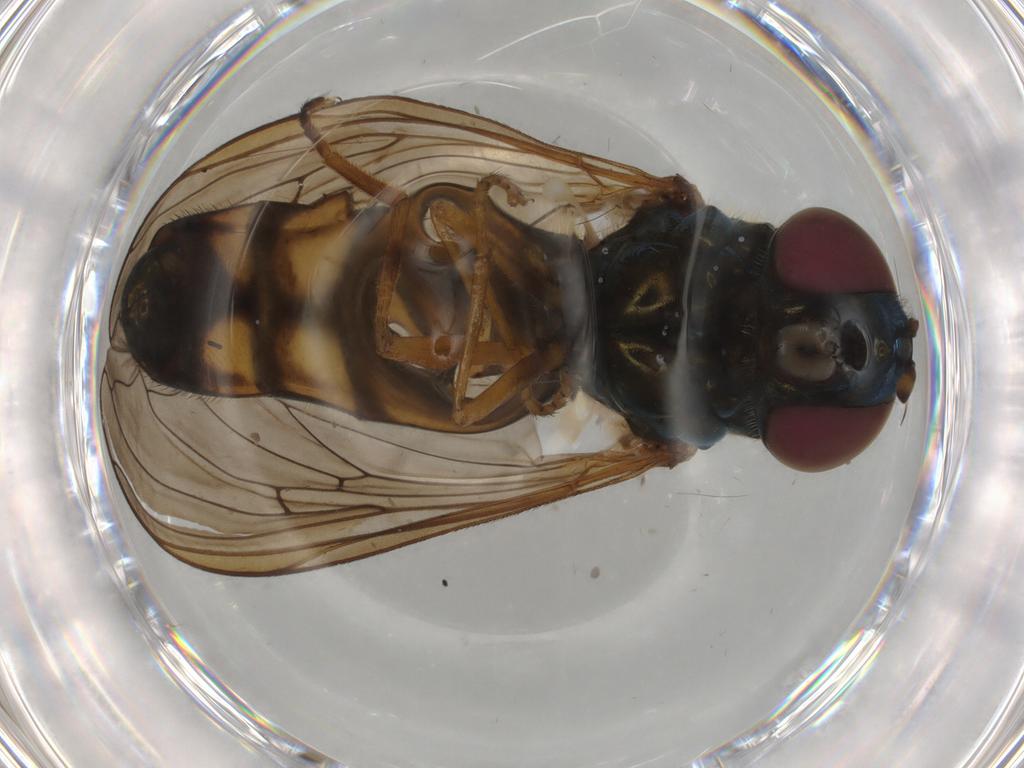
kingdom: Animalia
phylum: Arthropoda
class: Insecta
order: Diptera
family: Syrphidae
